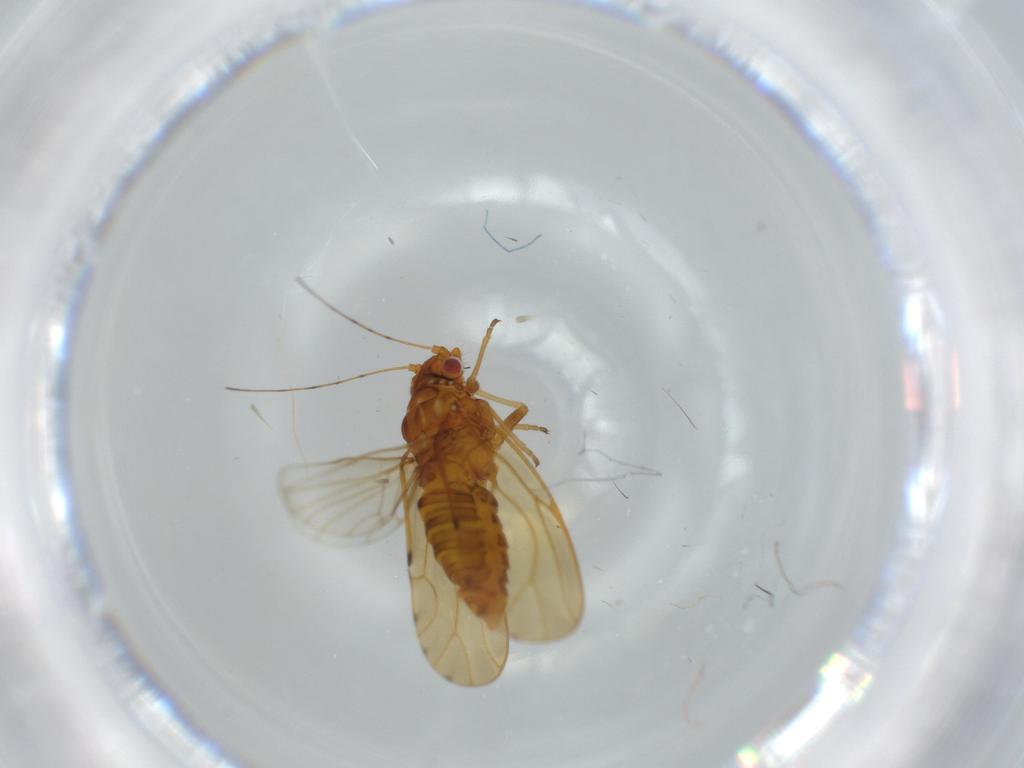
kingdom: Animalia
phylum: Arthropoda
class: Insecta
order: Hemiptera
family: Psylloidea_incertae_sedis
